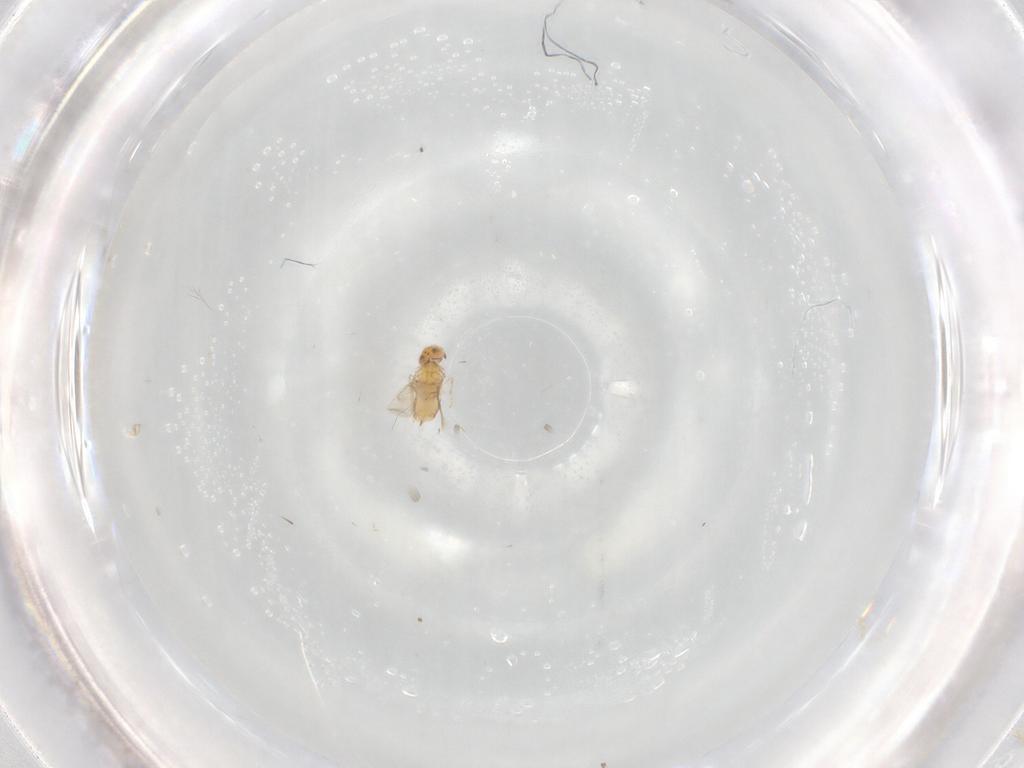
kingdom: Animalia
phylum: Arthropoda
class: Insecta
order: Hymenoptera
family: Aphelinidae
